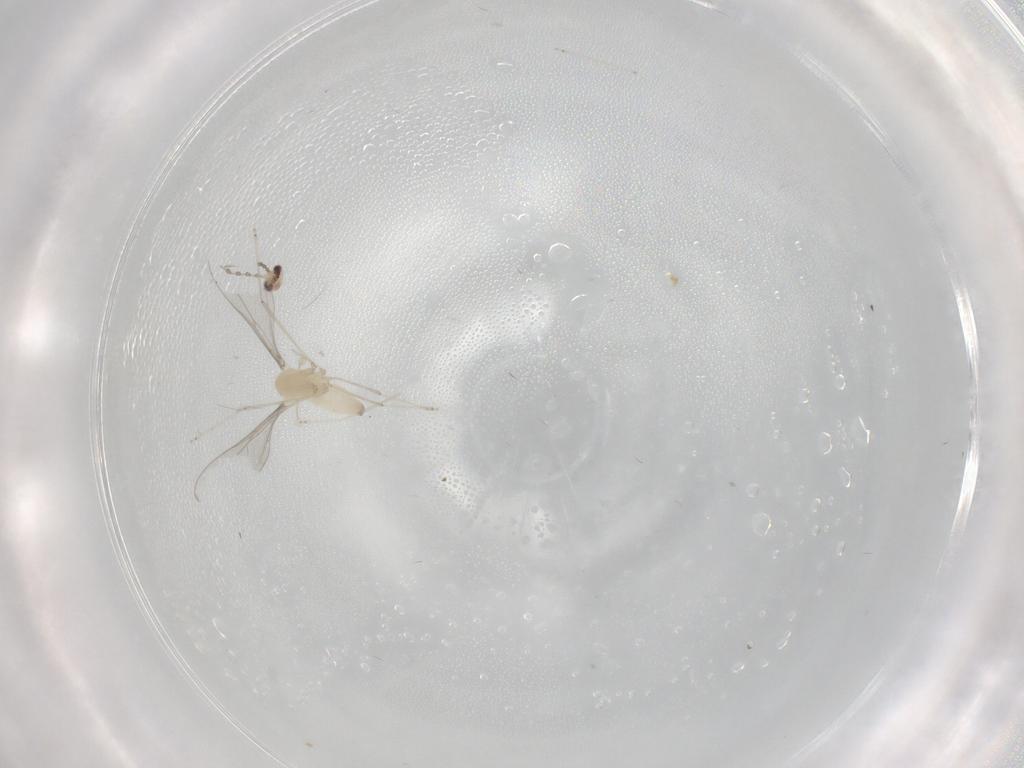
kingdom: Animalia
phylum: Arthropoda
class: Insecta
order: Diptera
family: Cecidomyiidae
